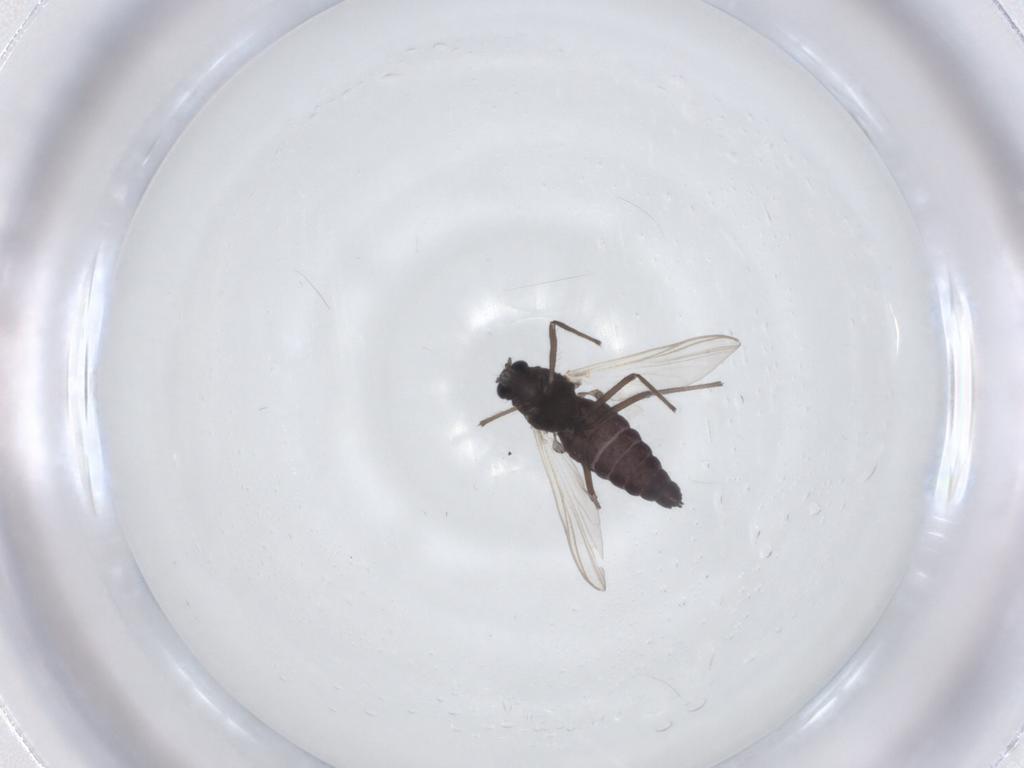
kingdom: Animalia
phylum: Arthropoda
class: Insecta
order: Diptera
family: Chironomidae
